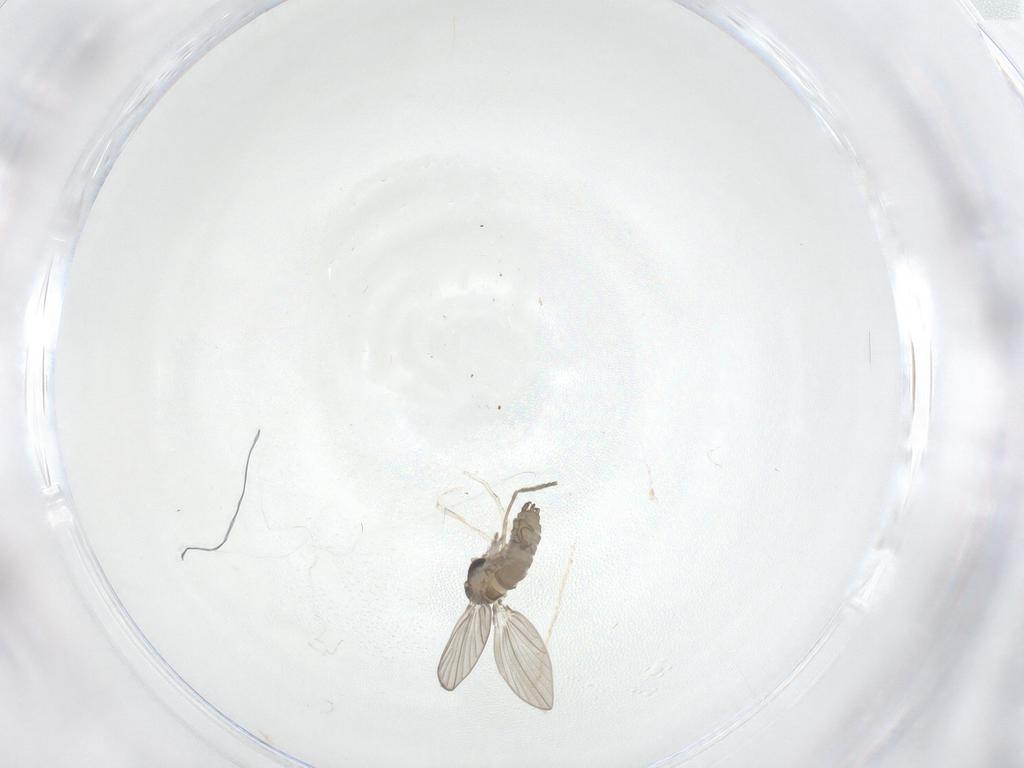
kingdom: Animalia
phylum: Arthropoda
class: Insecta
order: Diptera
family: Psychodidae
